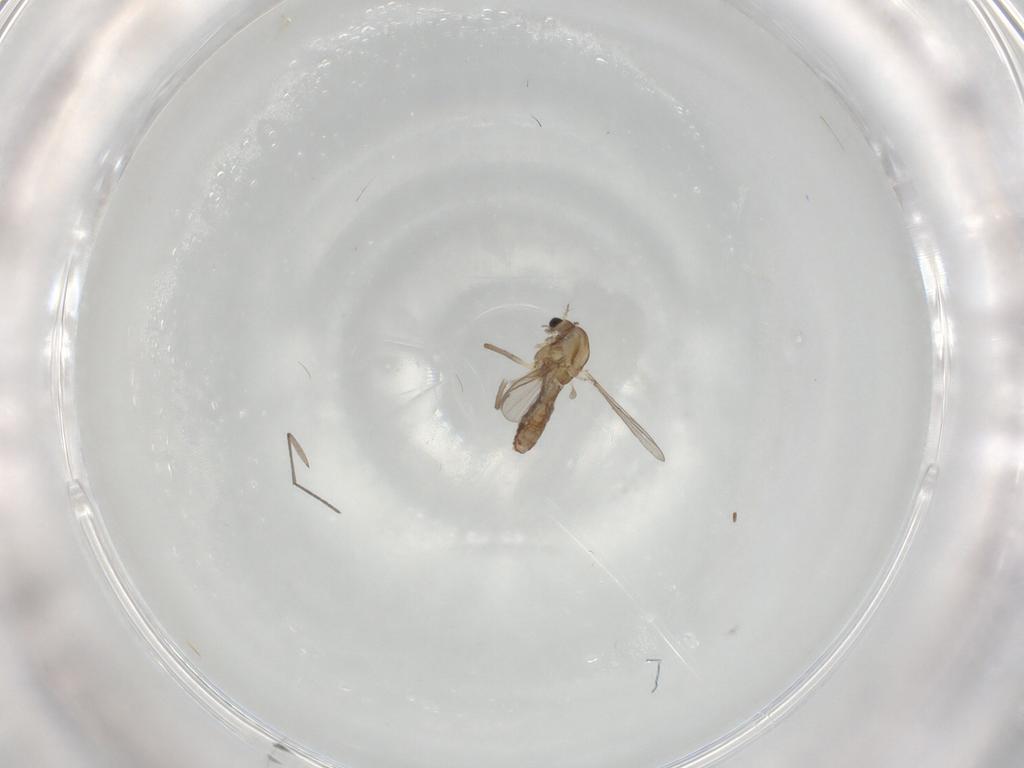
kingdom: Animalia
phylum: Arthropoda
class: Insecta
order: Diptera
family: Chironomidae
